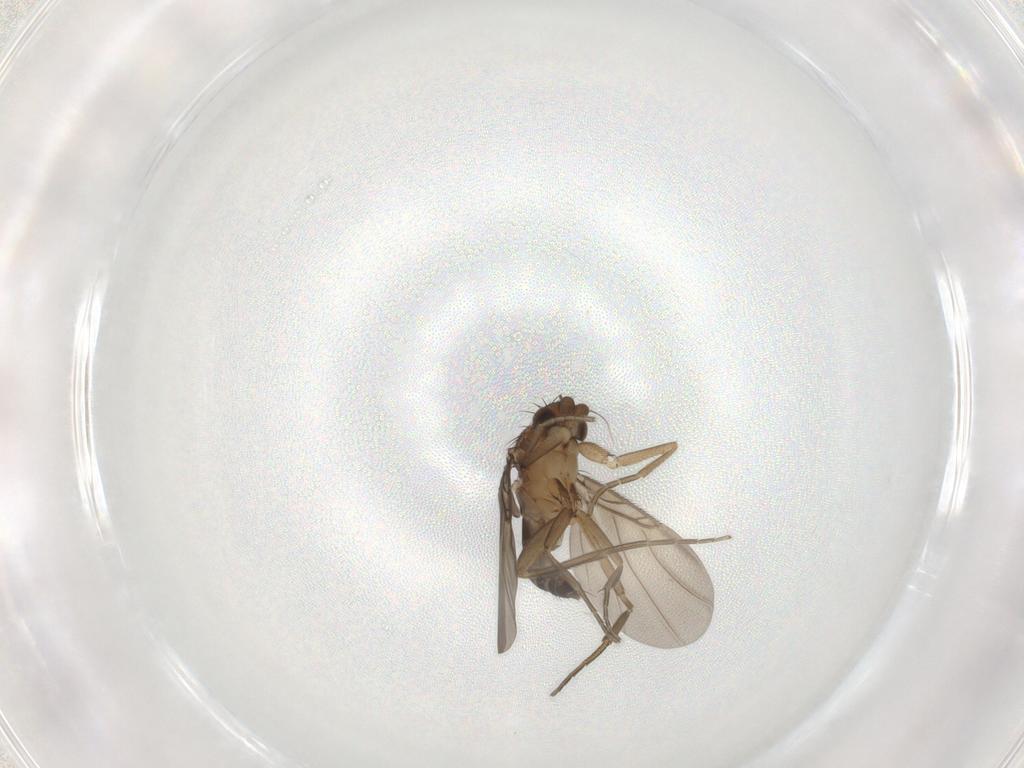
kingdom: Animalia
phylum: Arthropoda
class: Insecta
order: Diptera
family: Phoridae
